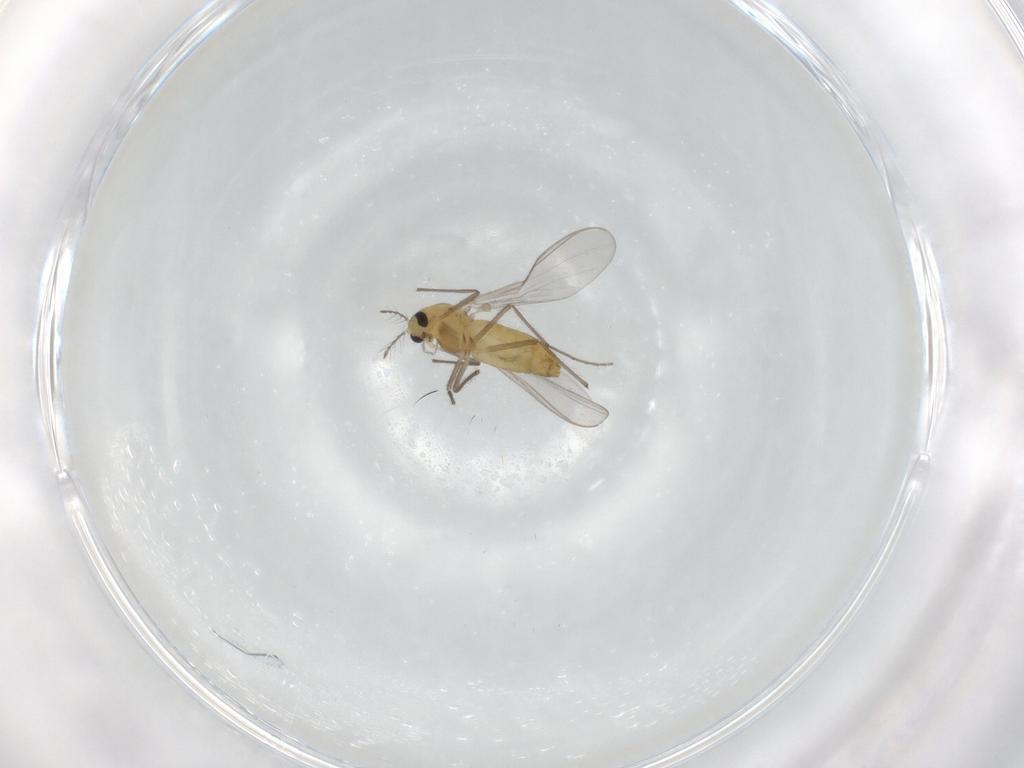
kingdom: Animalia
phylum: Arthropoda
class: Insecta
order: Diptera
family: Chironomidae
